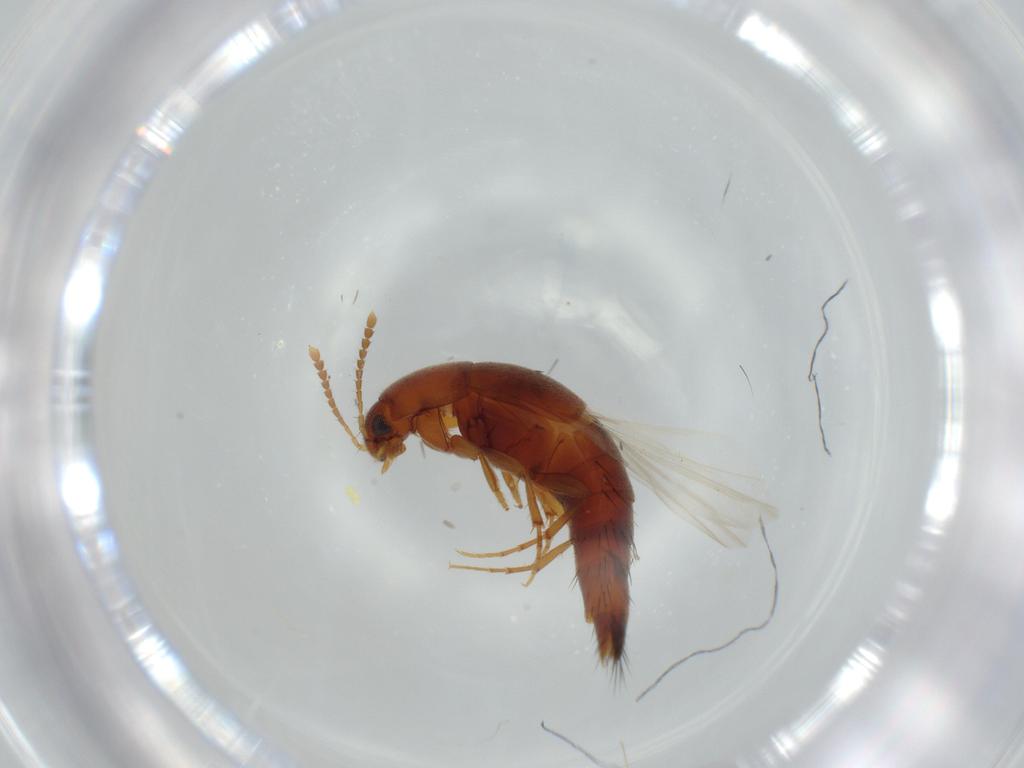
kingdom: Animalia
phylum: Arthropoda
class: Insecta
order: Coleoptera
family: Staphylinidae
